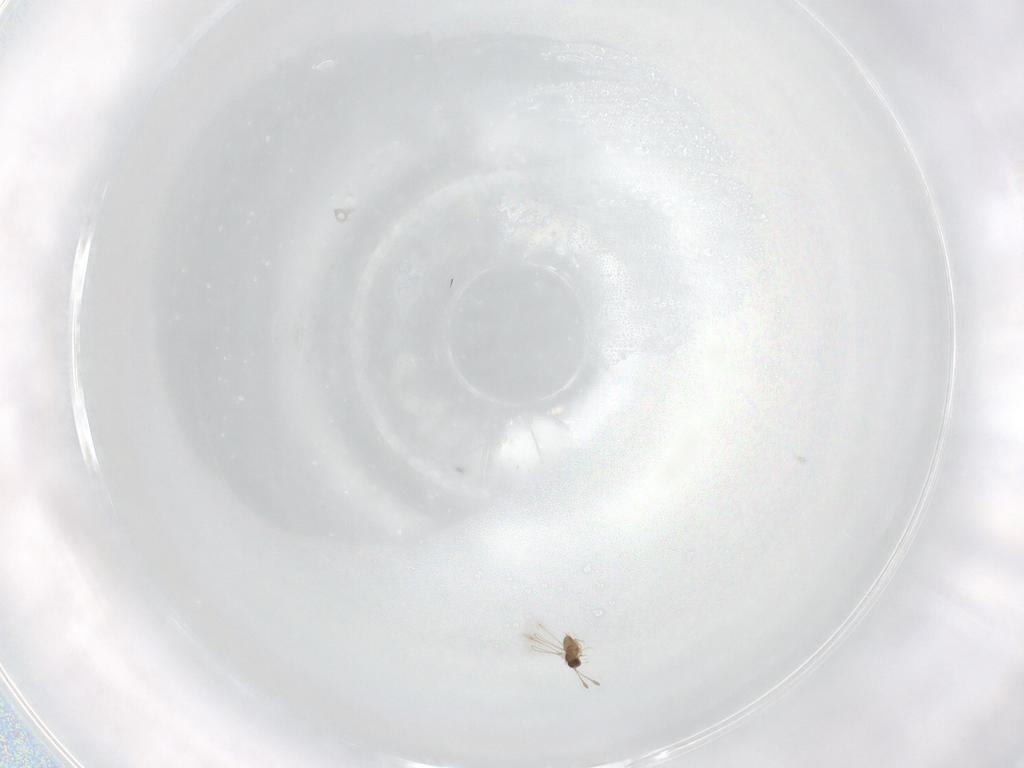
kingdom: Animalia
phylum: Arthropoda
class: Insecta
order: Hymenoptera
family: Pteromalidae
